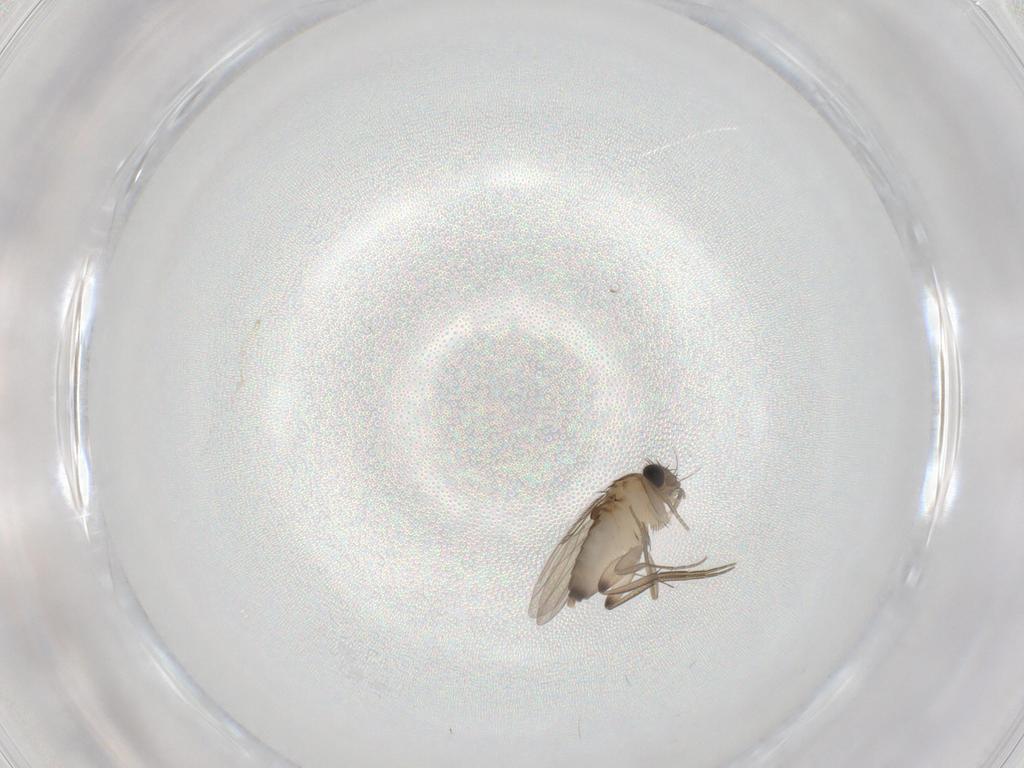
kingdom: Animalia
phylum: Arthropoda
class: Insecta
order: Diptera
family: Phoridae
